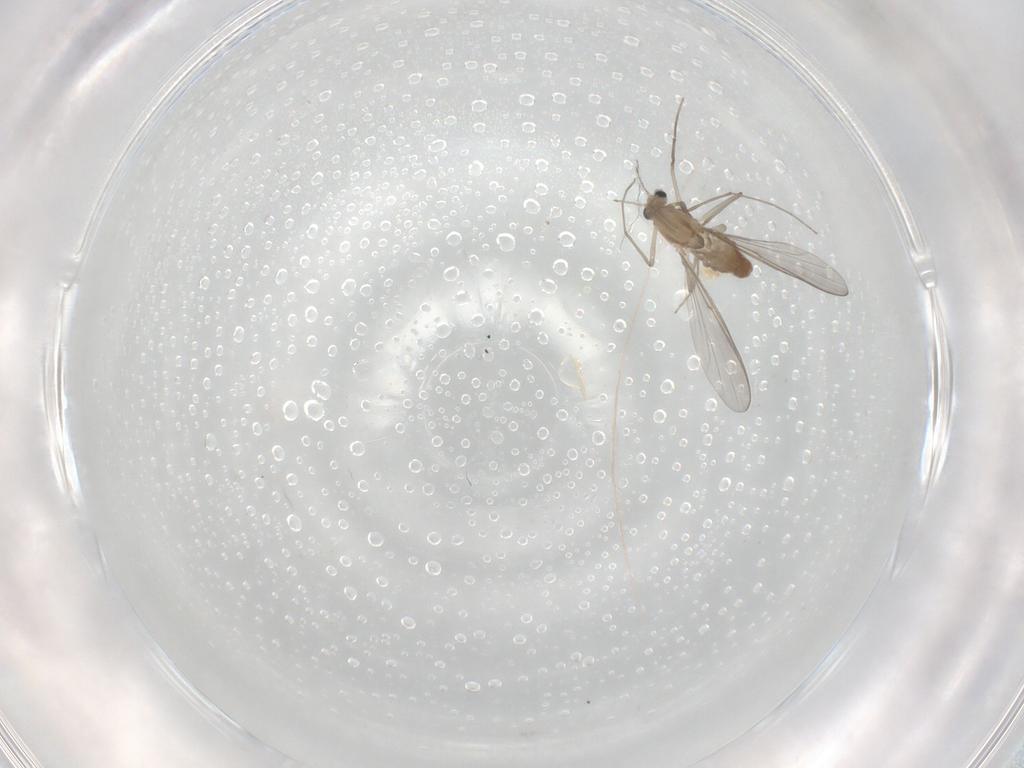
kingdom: Animalia
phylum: Arthropoda
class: Insecta
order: Diptera
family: Chironomidae
